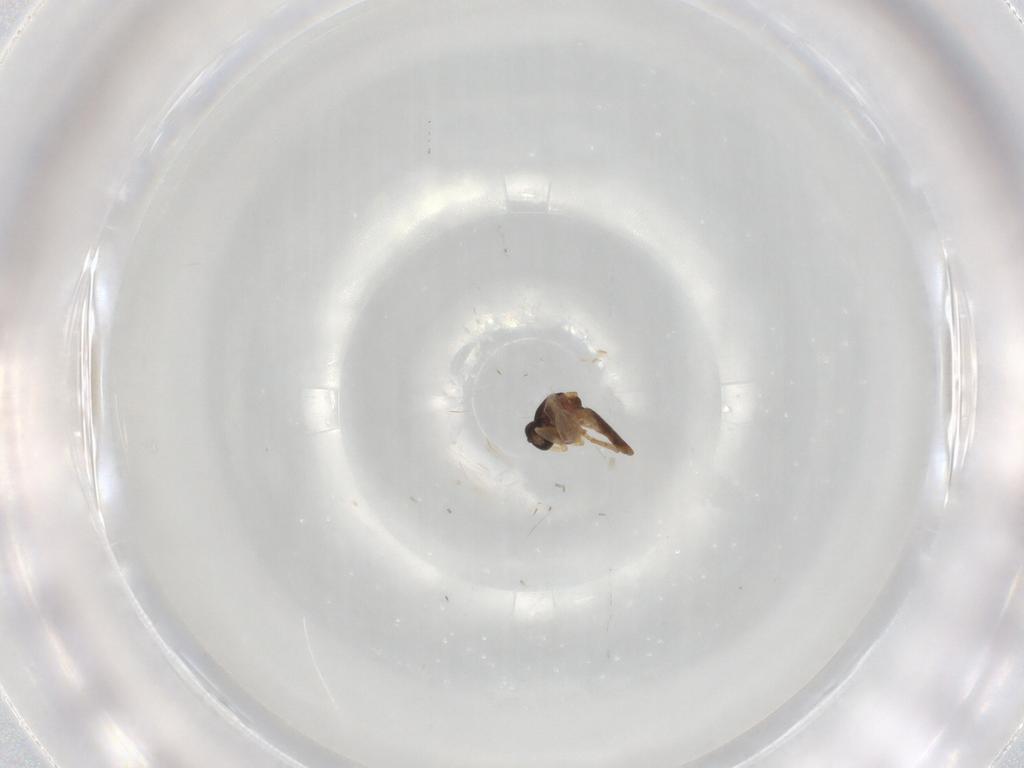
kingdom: Animalia
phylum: Arthropoda
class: Insecta
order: Diptera
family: Ceratopogonidae
